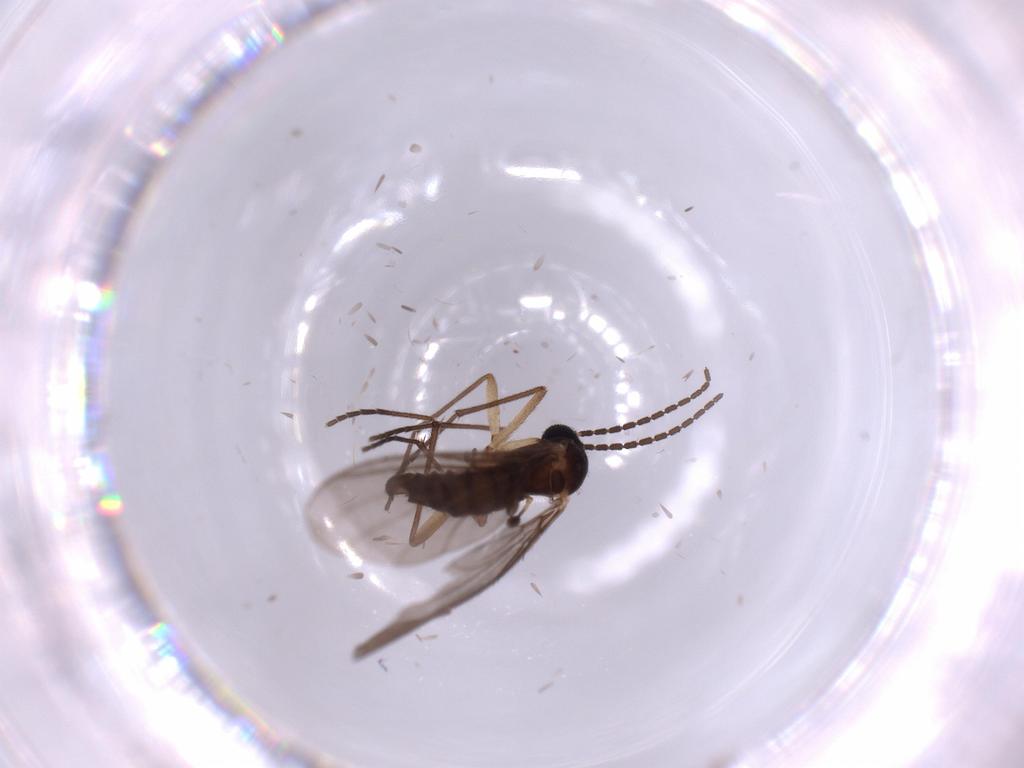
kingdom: Animalia
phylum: Arthropoda
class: Insecta
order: Diptera
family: Sciaridae
